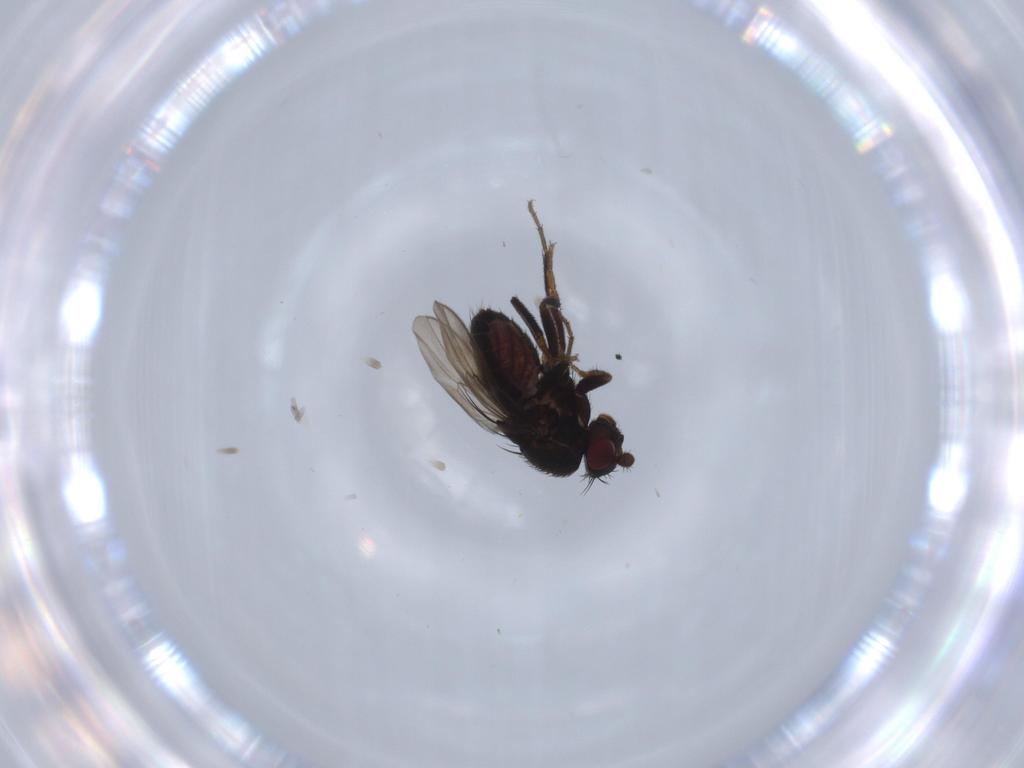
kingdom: Animalia
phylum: Arthropoda
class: Insecta
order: Diptera
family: Sphaeroceridae
